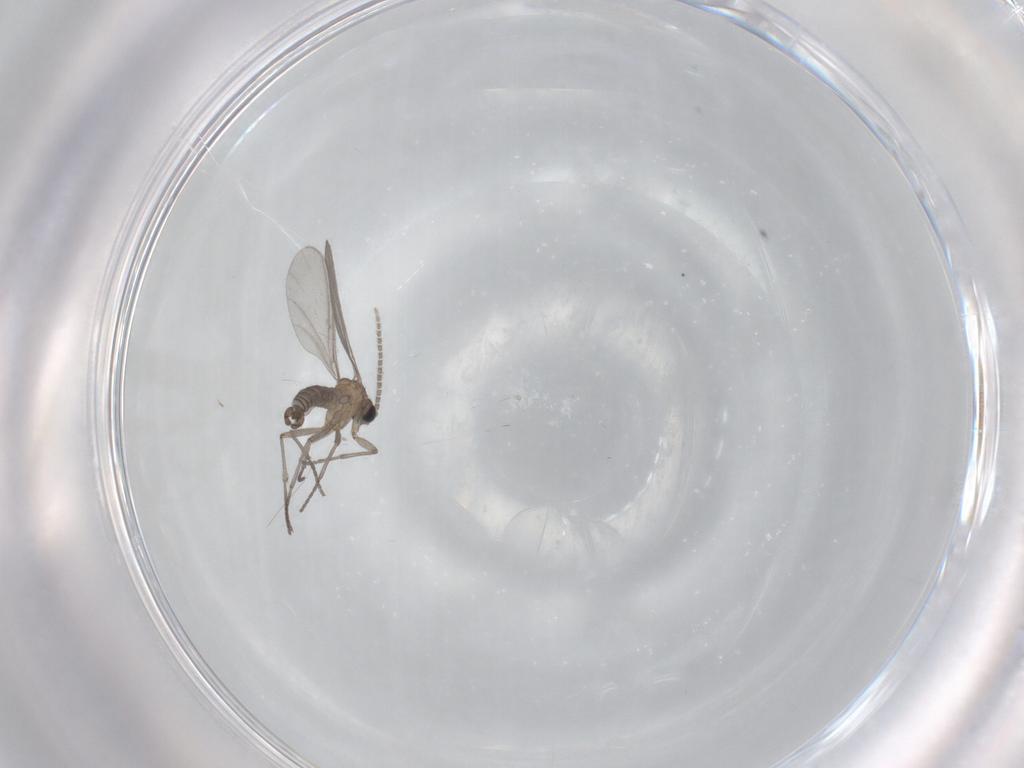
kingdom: Animalia
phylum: Arthropoda
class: Insecta
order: Diptera
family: Sciaridae
